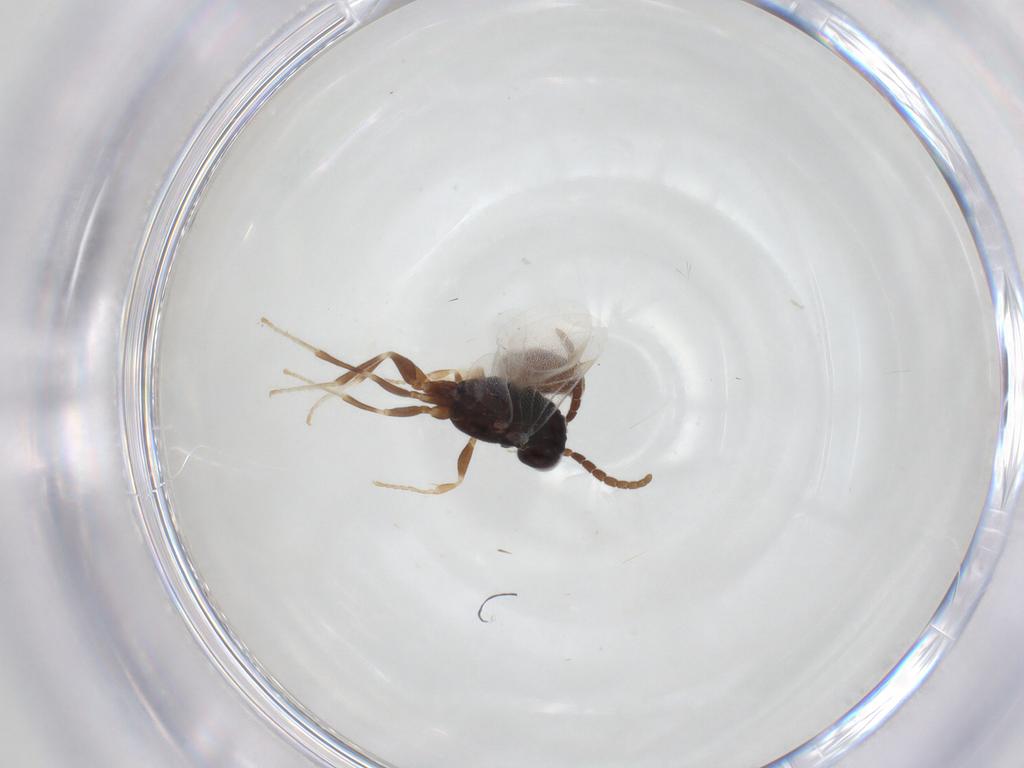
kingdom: Animalia
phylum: Arthropoda
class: Insecta
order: Hymenoptera
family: Dryinidae
